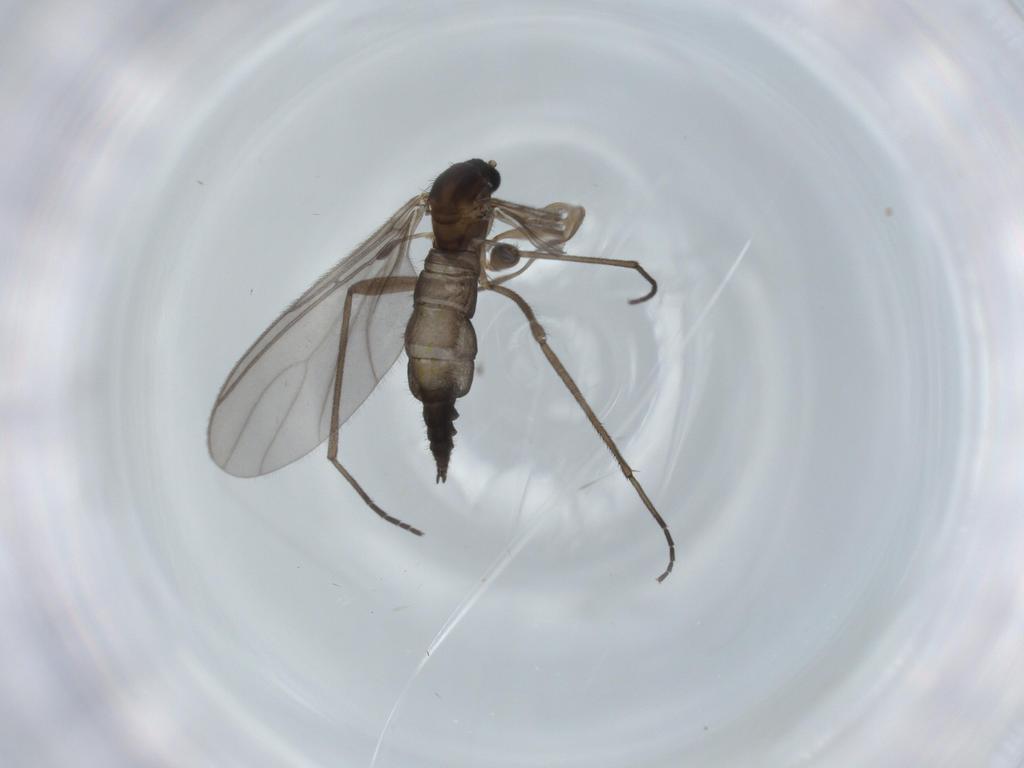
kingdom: Animalia
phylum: Arthropoda
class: Insecta
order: Diptera
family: Sciaridae
